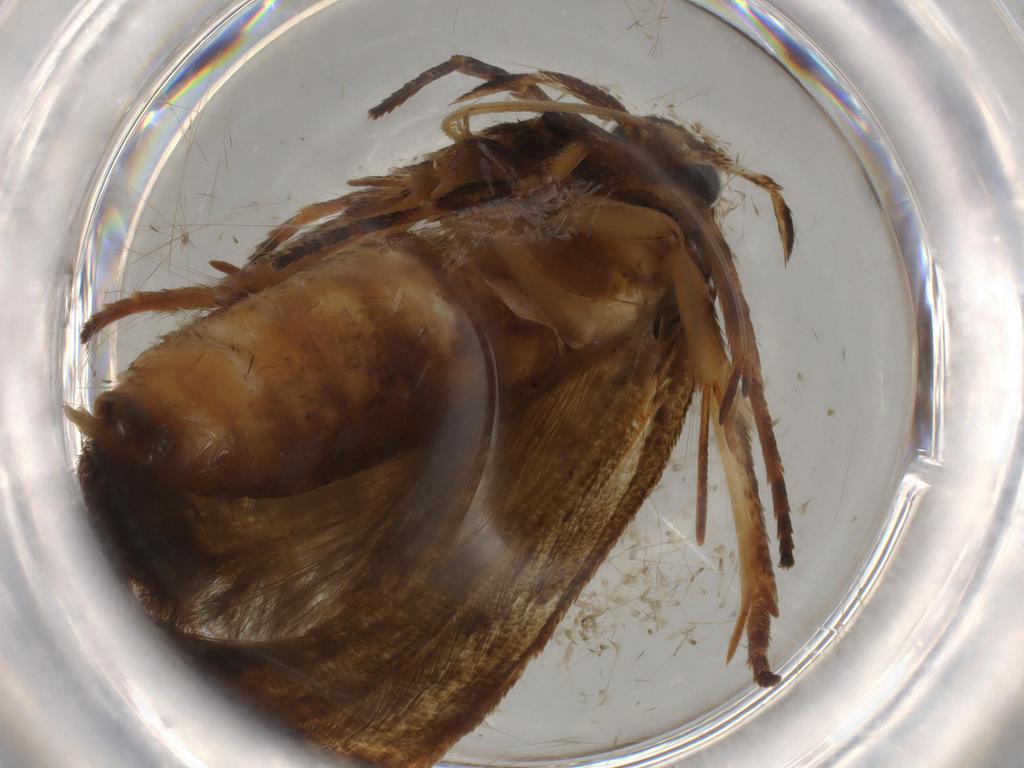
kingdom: Animalia
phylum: Arthropoda
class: Insecta
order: Lepidoptera
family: Blastobasidae
